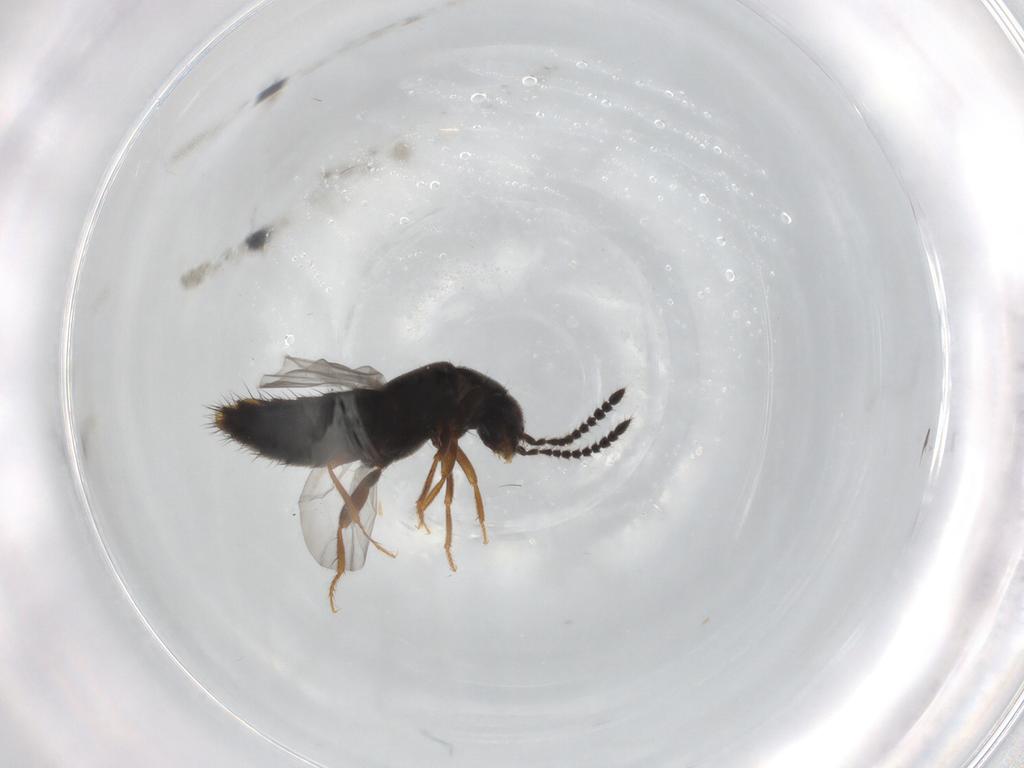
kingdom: Animalia
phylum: Arthropoda
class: Insecta
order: Coleoptera
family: Staphylinidae
